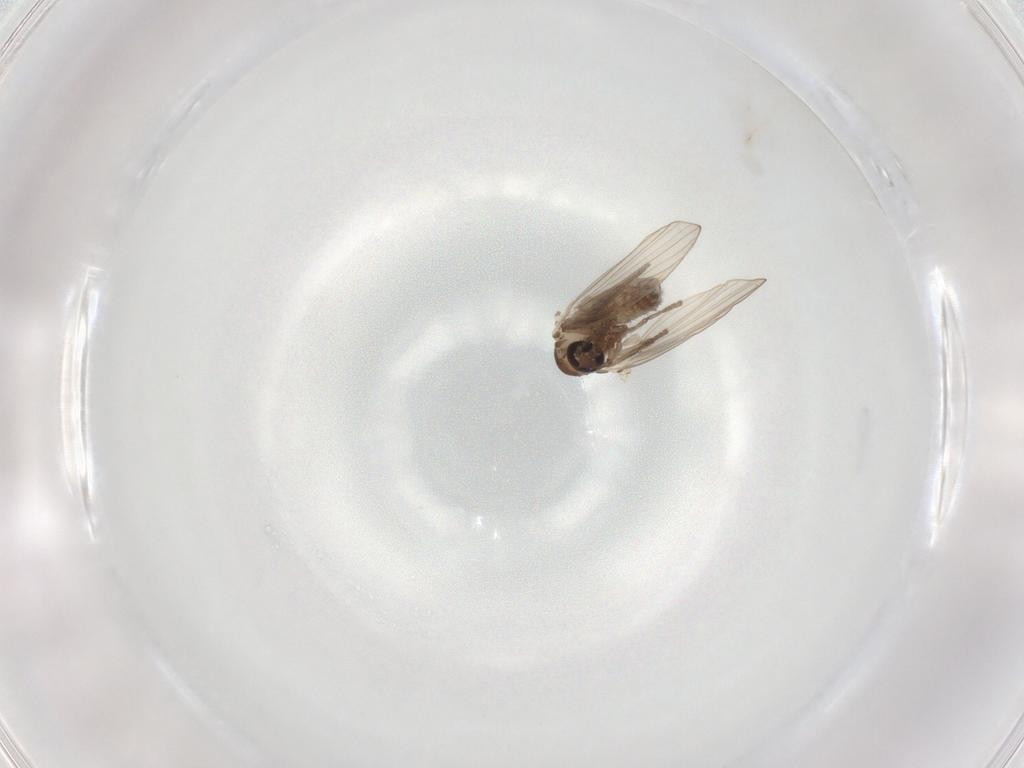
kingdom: Animalia
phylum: Arthropoda
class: Insecta
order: Diptera
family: Psychodidae
